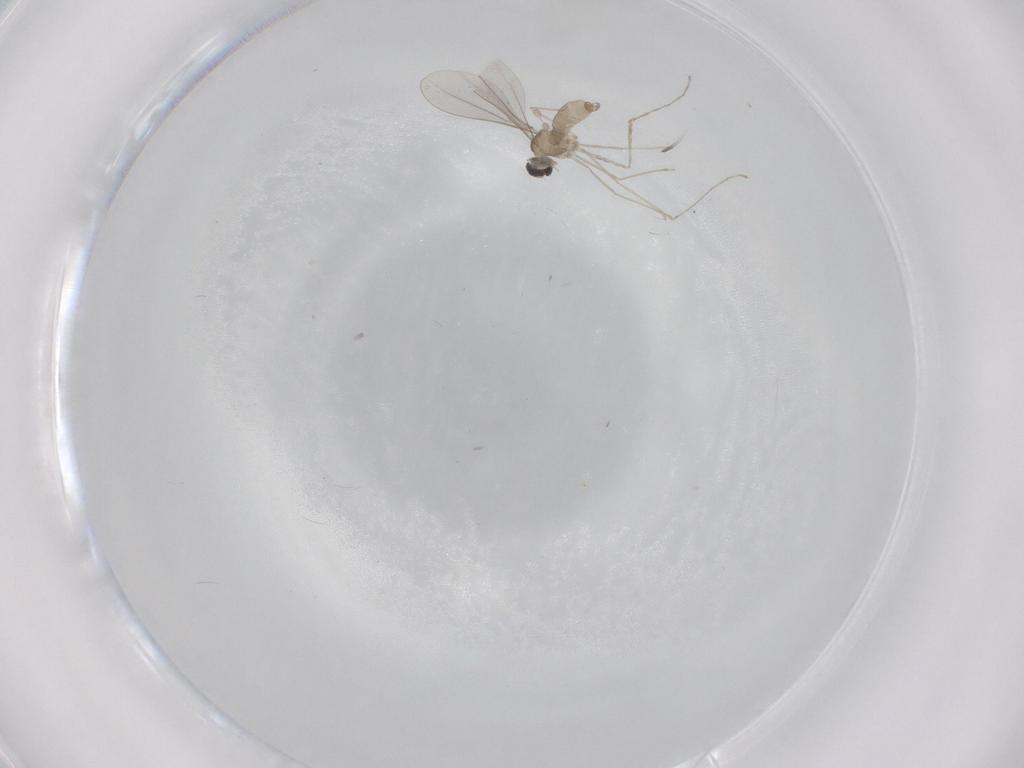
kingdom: Animalia
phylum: Arthropoda
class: Insecta
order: Diptera
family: Cecidomyiidae
